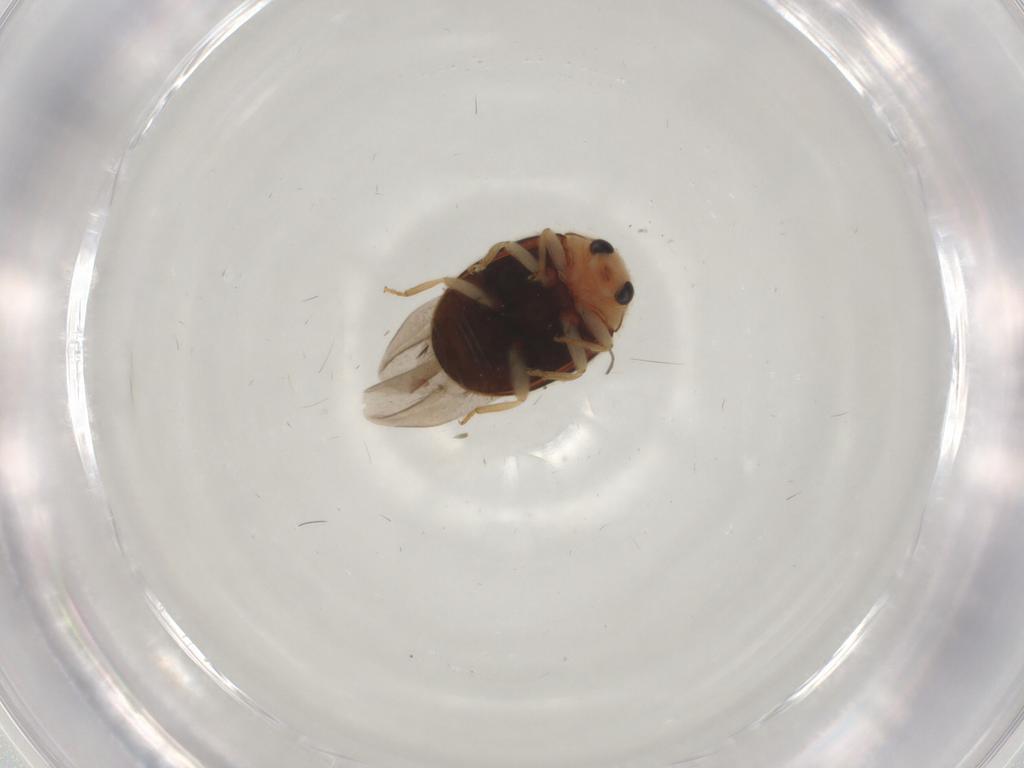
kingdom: Animalia
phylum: Arthropoda
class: Insecta
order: Coleoptera
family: Coccinellidae
